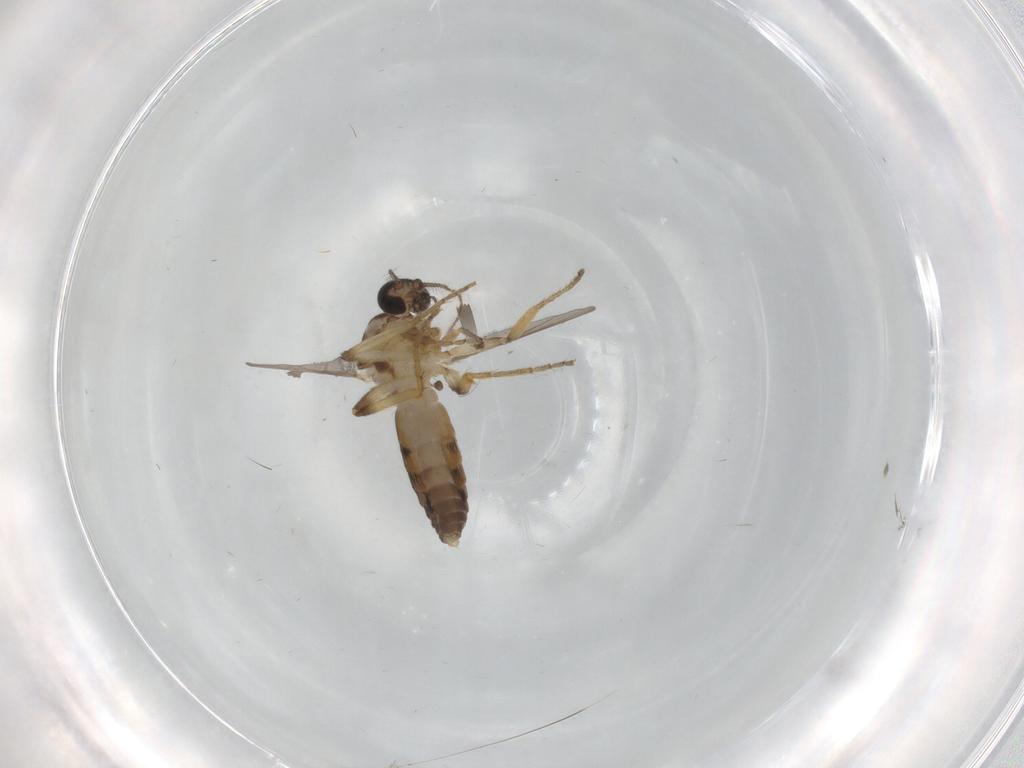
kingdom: Animalia
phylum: Arthropoda
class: Insecta
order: Diptera
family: Ceratopogonidae
